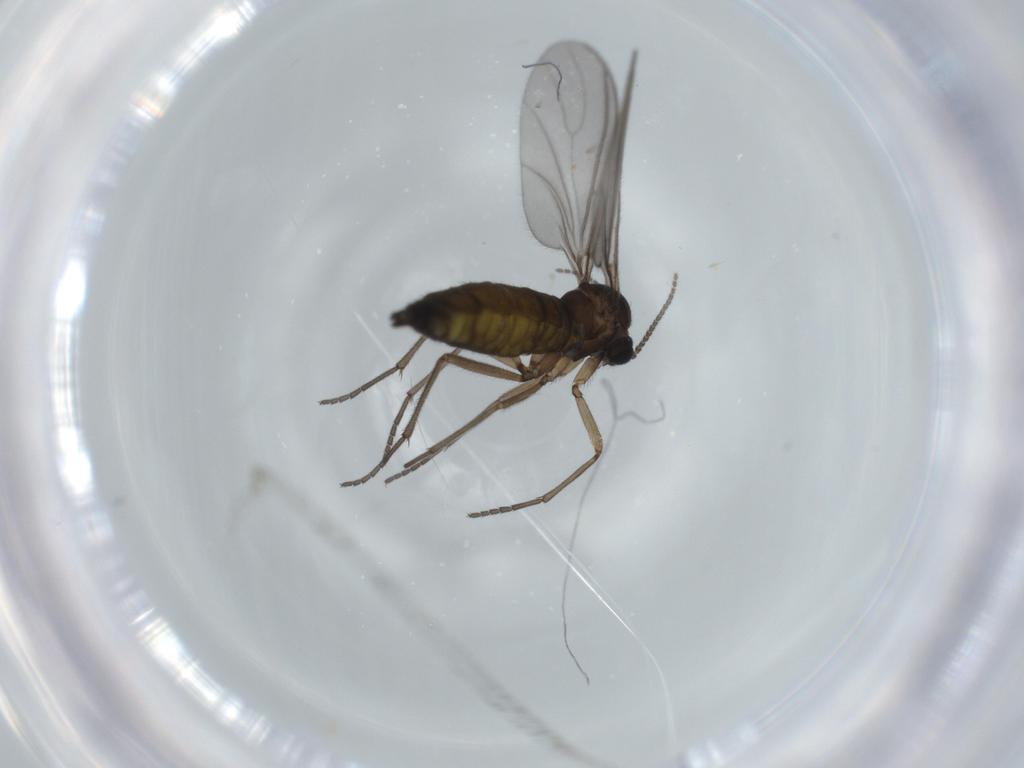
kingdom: Animalia
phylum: Arthropoda
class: Insecta
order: Diptera
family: Sciaridae
